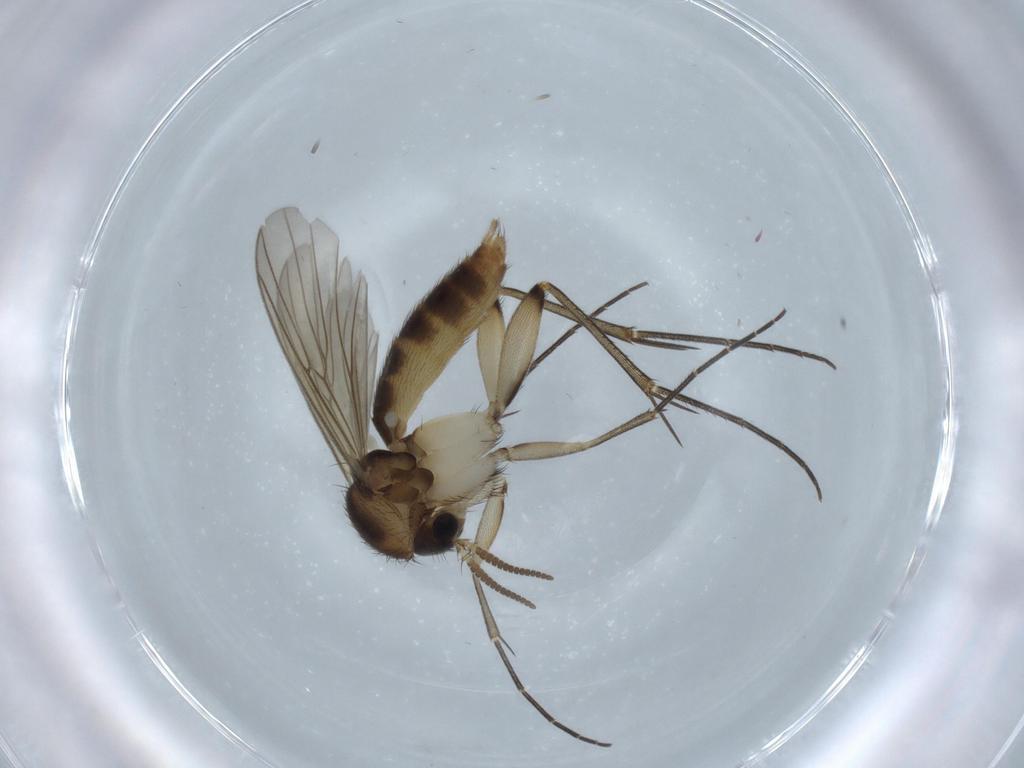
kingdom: Animalia
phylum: Arthropoda
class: Insecta
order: Diptera
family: Mycetophilidae
